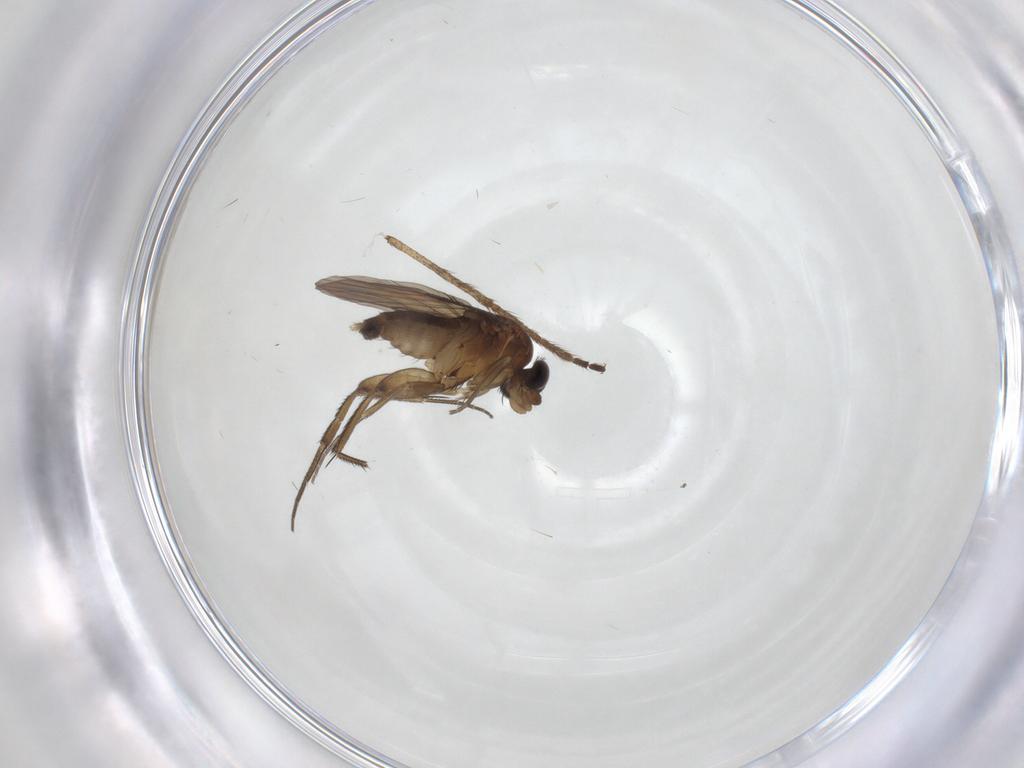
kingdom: Animalia
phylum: Arthropoda
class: Insecta
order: Diptera
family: Phoridae
